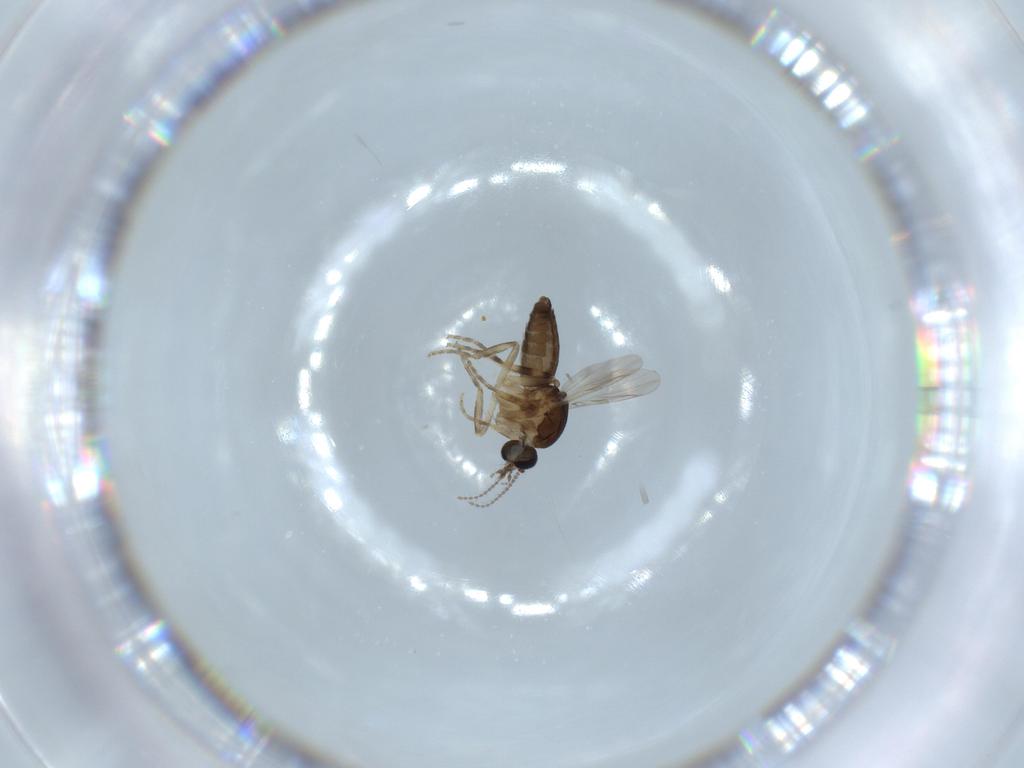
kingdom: Animalia
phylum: Arthropoda
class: Insecta
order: Diptera
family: Ceratopogonidae
